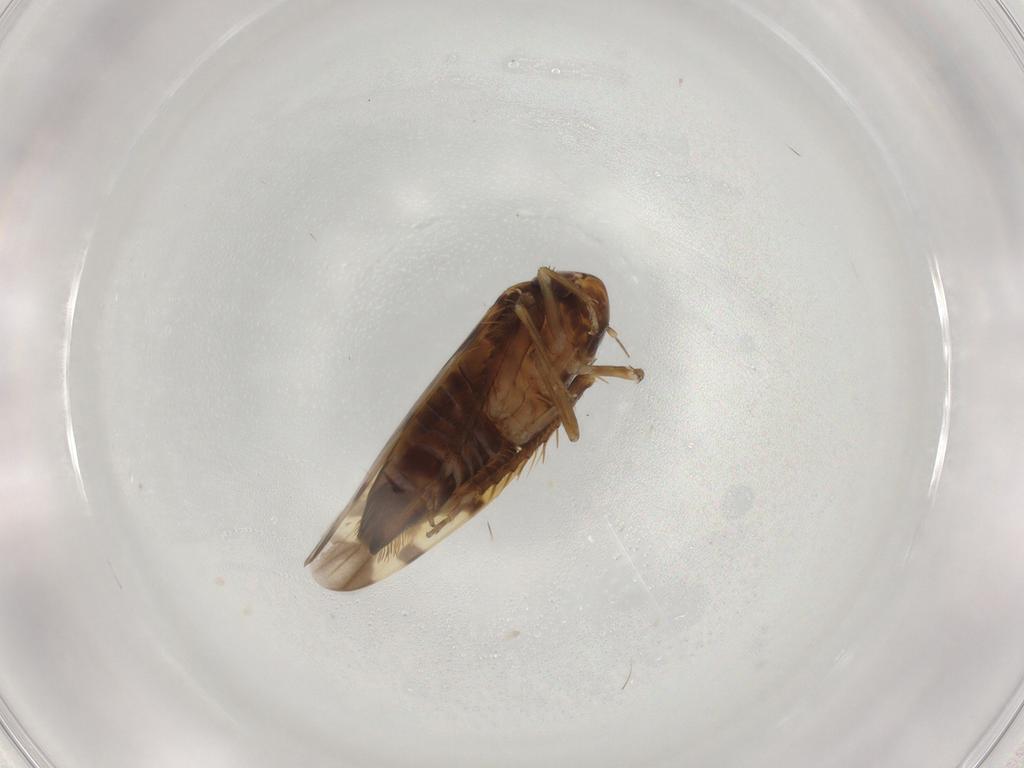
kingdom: Animalia
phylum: Arthropoda
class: Insecta
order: Hemiptera
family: Cicadellidae
